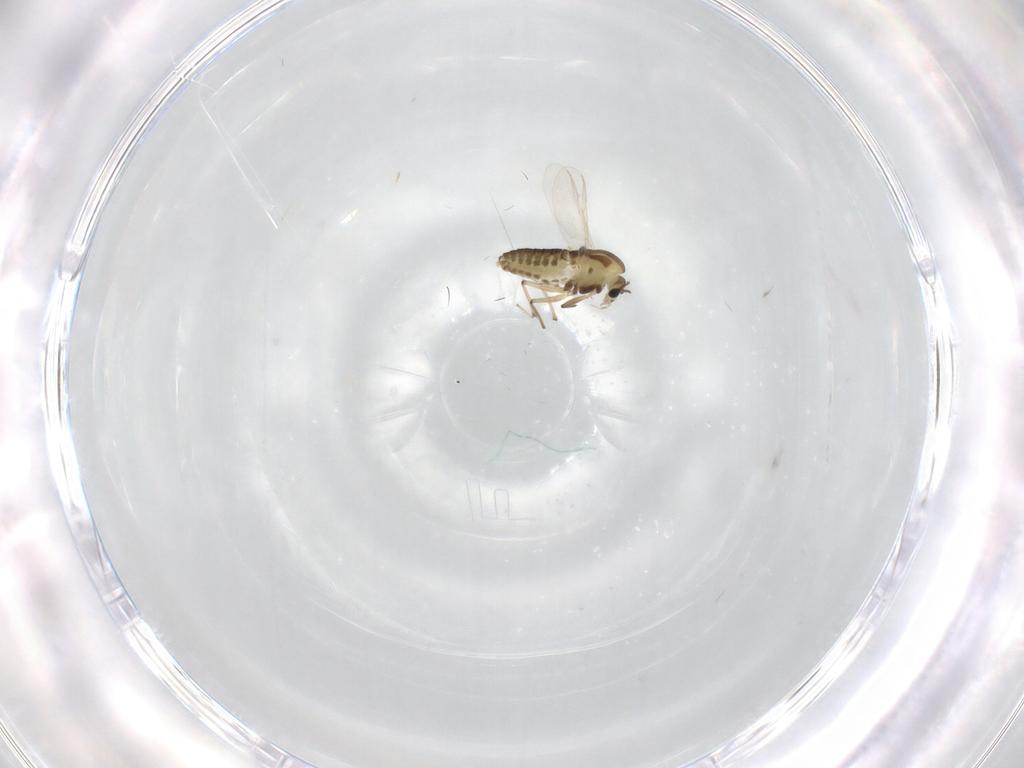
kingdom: Animalia
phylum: Arthropoda
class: Insecta
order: Diptera
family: Chironomidae
